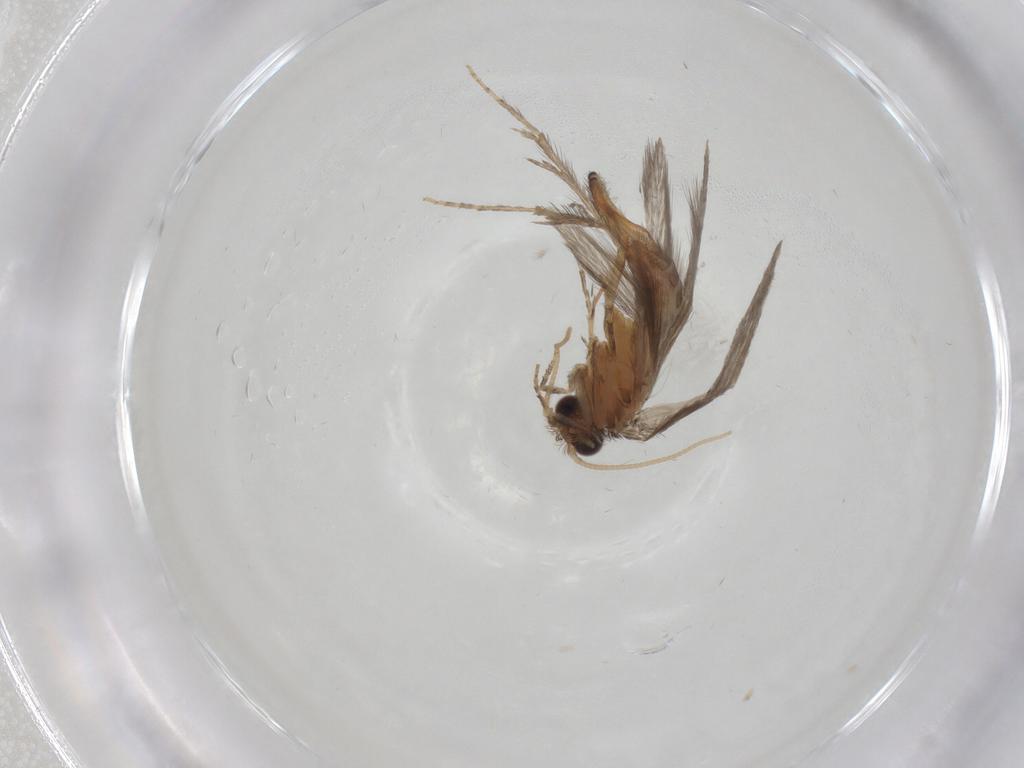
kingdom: Animalia
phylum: Arthropoda
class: Insecta
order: Trichoptera
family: Hydroptilidae
